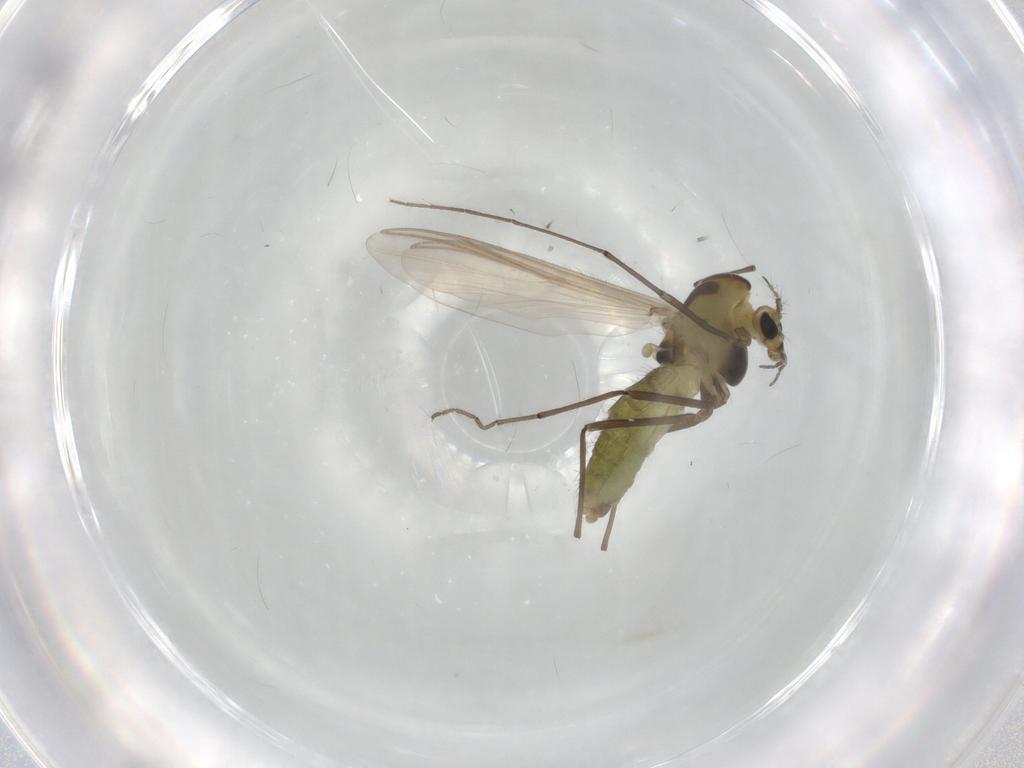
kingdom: Animalia
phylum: Arthropoda
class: Insecta
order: Diptera
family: Chironomidae
